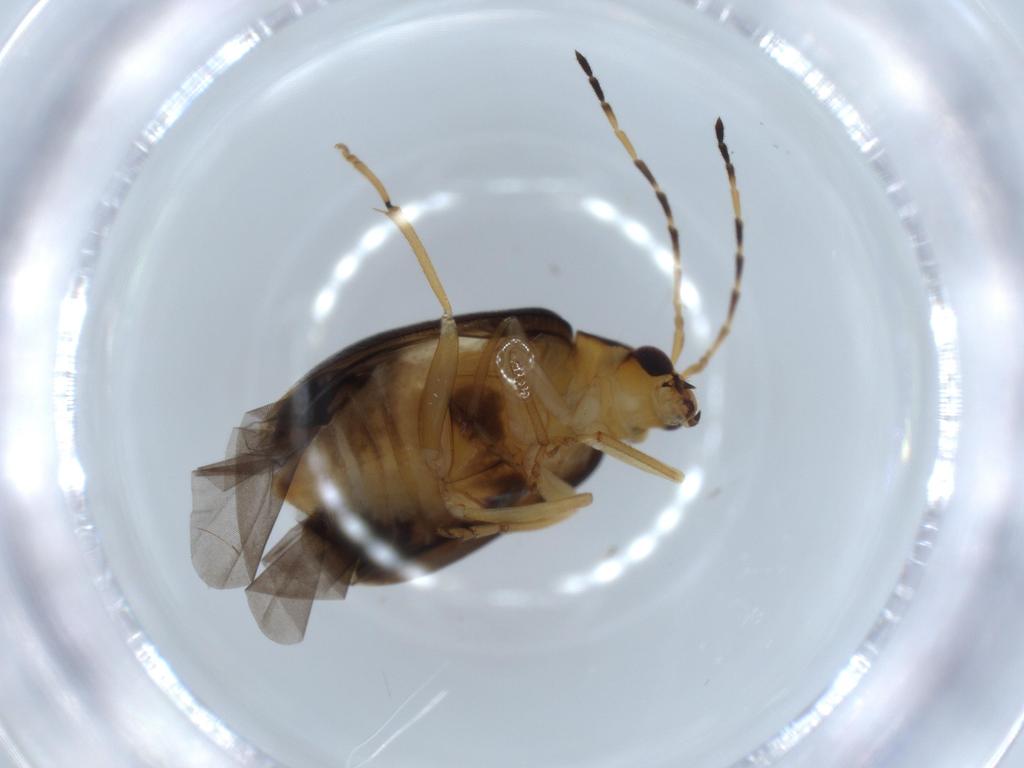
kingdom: Animalia
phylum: Arthropoda
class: Insecta
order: Coleoptera
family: Chrysomelidae
